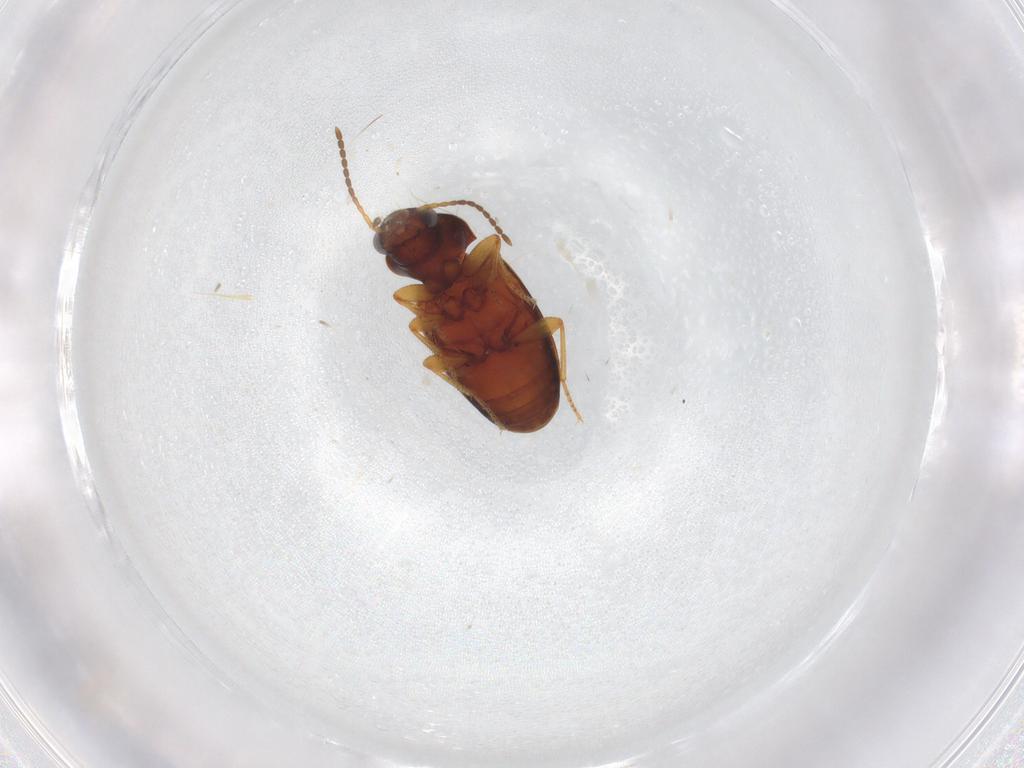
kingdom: Animalia
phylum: Arthropoda
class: Insecta
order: Coleoptera
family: Carabidae
